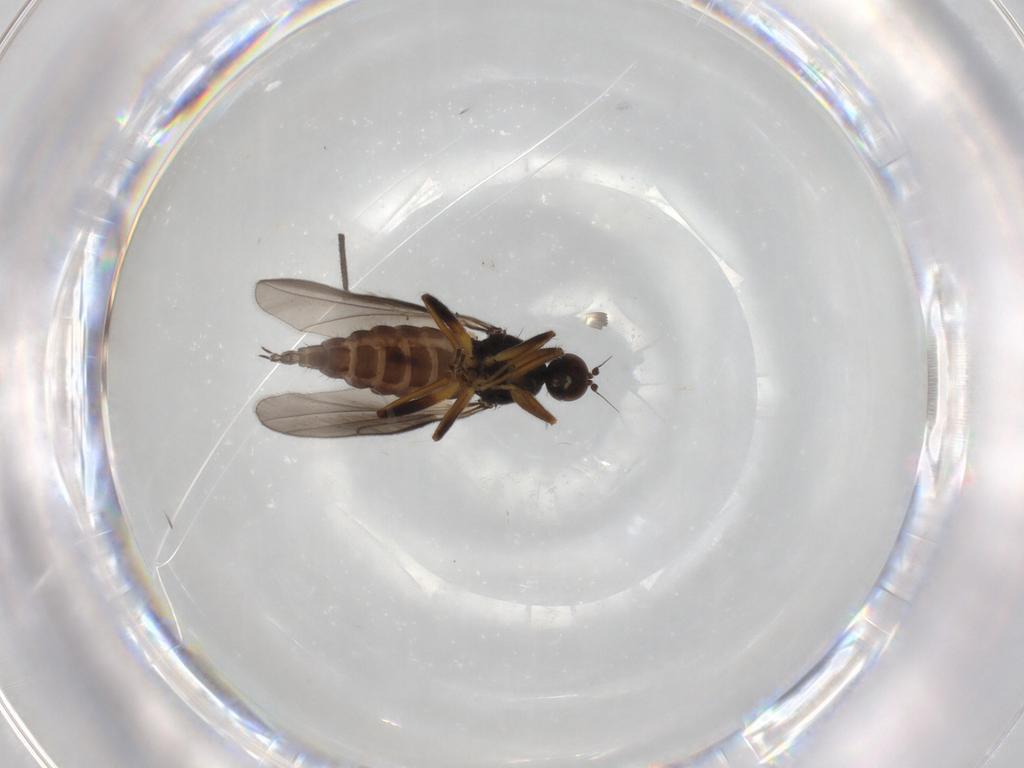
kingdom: Animalia
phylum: Arthropoda
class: Insecta
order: Diptera
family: Hybotidae
